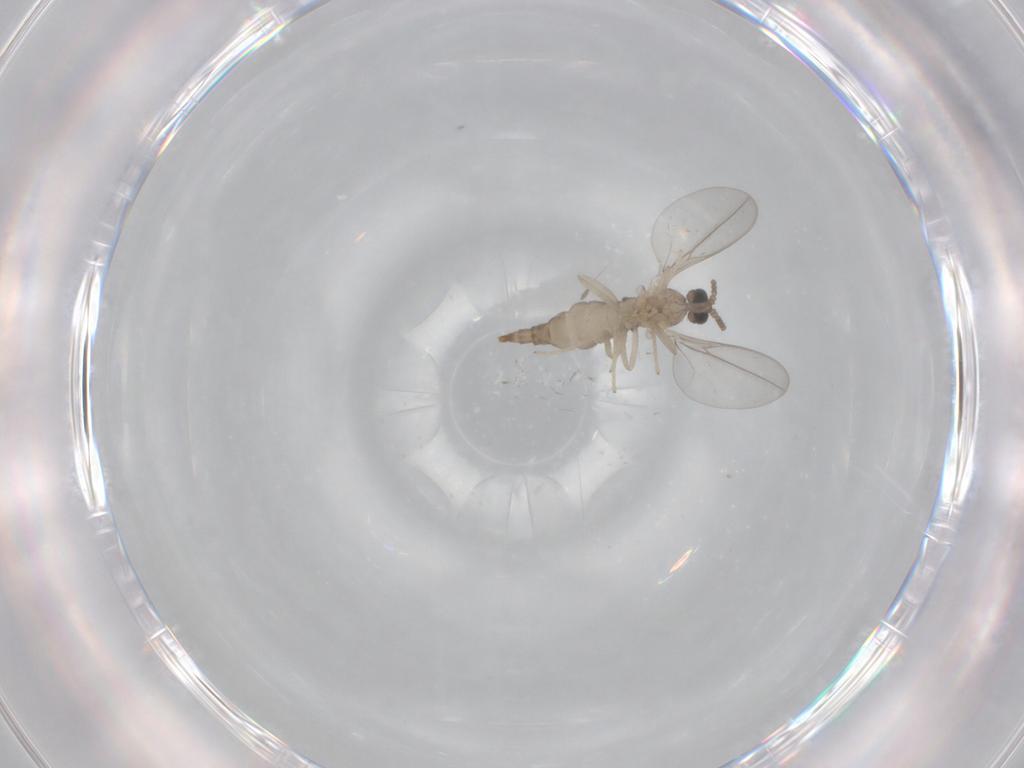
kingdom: Animalia
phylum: Arthropoda
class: Insecta
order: Diptera
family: Cecidomyiidae
